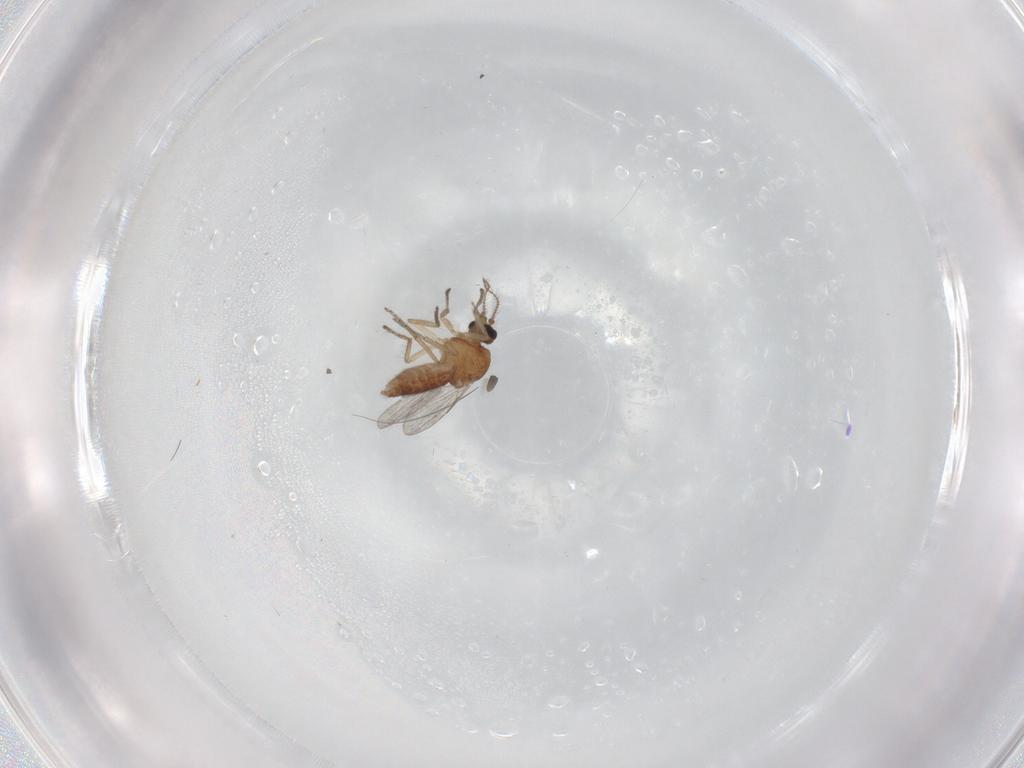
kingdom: Animalia
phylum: Arthropoda
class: Insecta
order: Diptera
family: Ceratopogonidae
